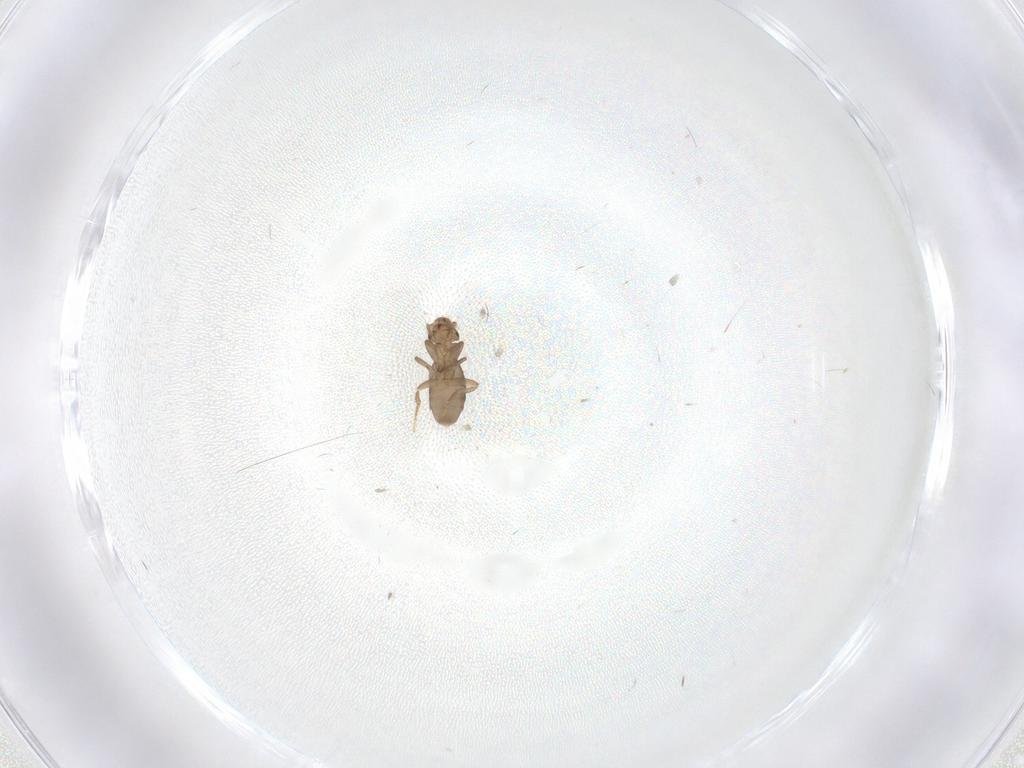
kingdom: Animalia
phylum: Arthropoda
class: Insecta
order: Diptera
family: Phoridae
